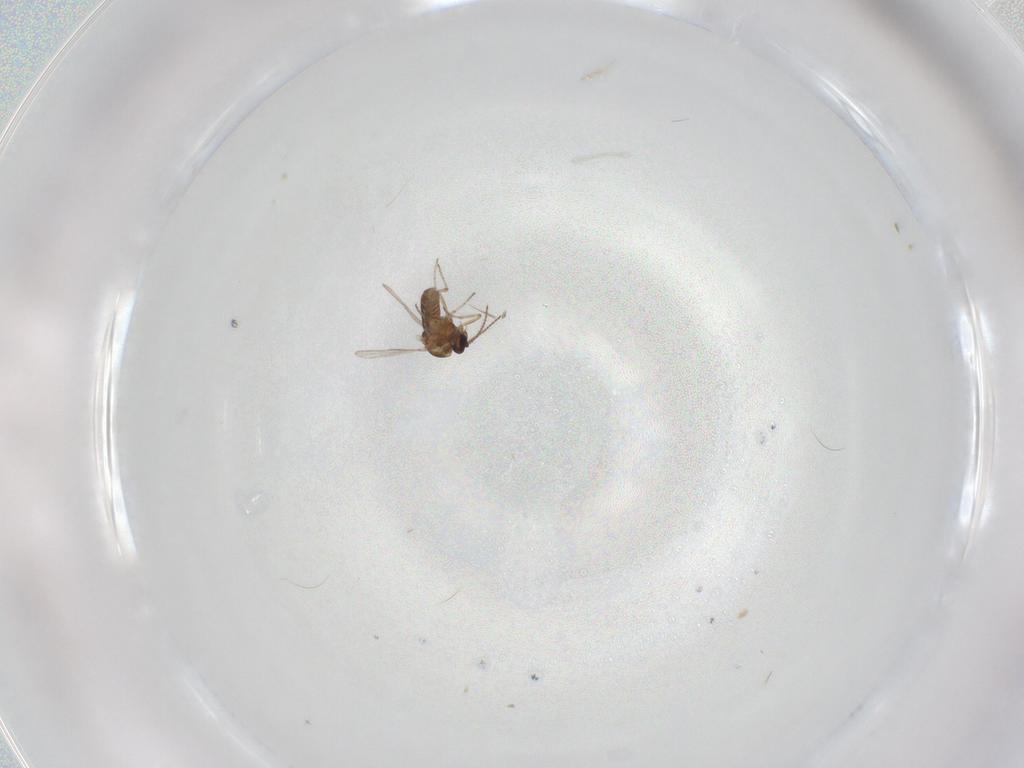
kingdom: Animalia
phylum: Arthropoda
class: Insecta
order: Diptera
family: Ceratopogonidae
